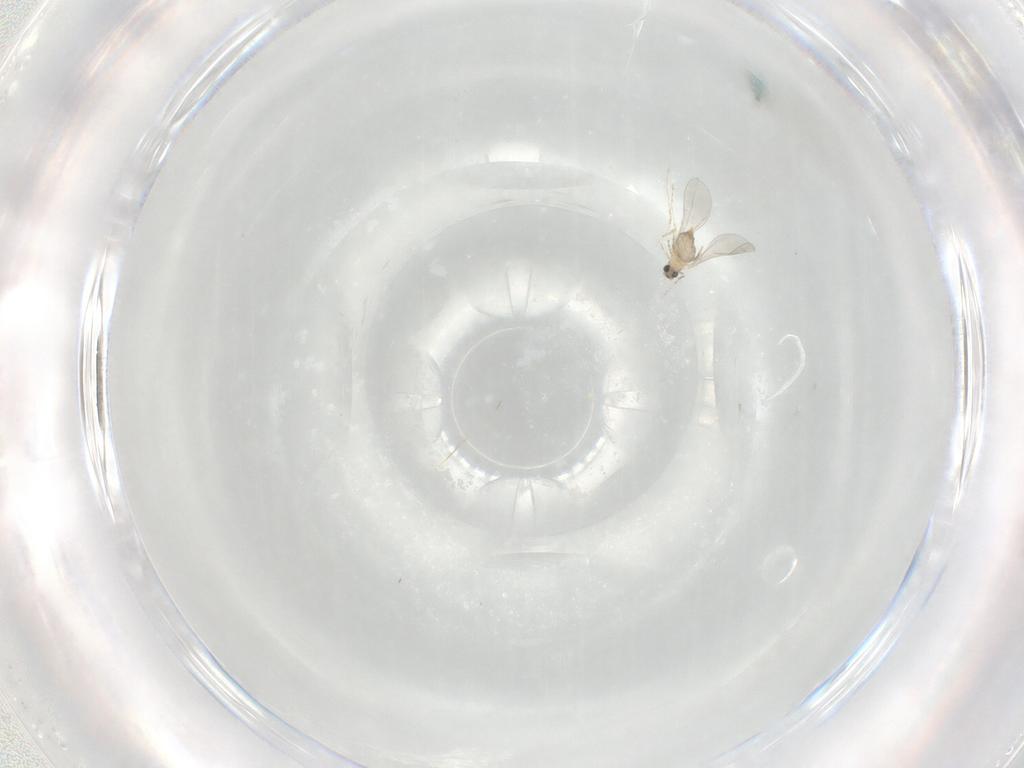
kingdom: Animalia
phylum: Arthropoda
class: Insecta
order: Diptera
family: Cecidomyiidae
